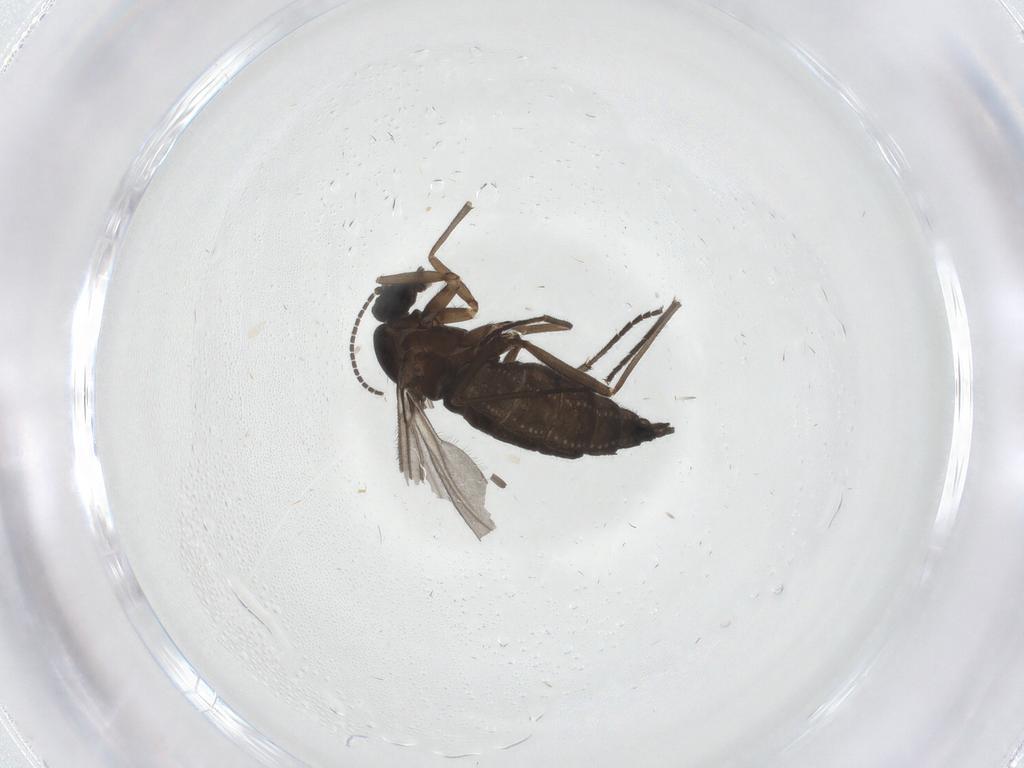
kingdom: Animalia
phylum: Arthropoda
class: Insecta
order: Diptera
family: Sciaridae
